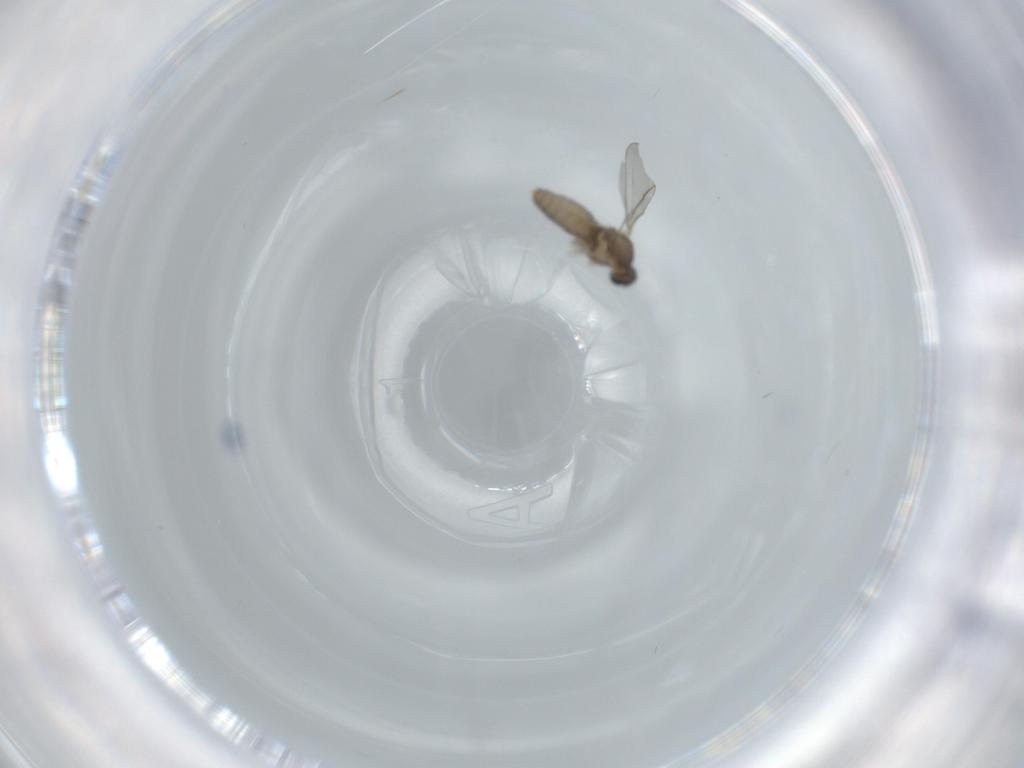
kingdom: Animalia
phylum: Arthropoda
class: Insecta
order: Diptera
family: Cecidomyiidae
